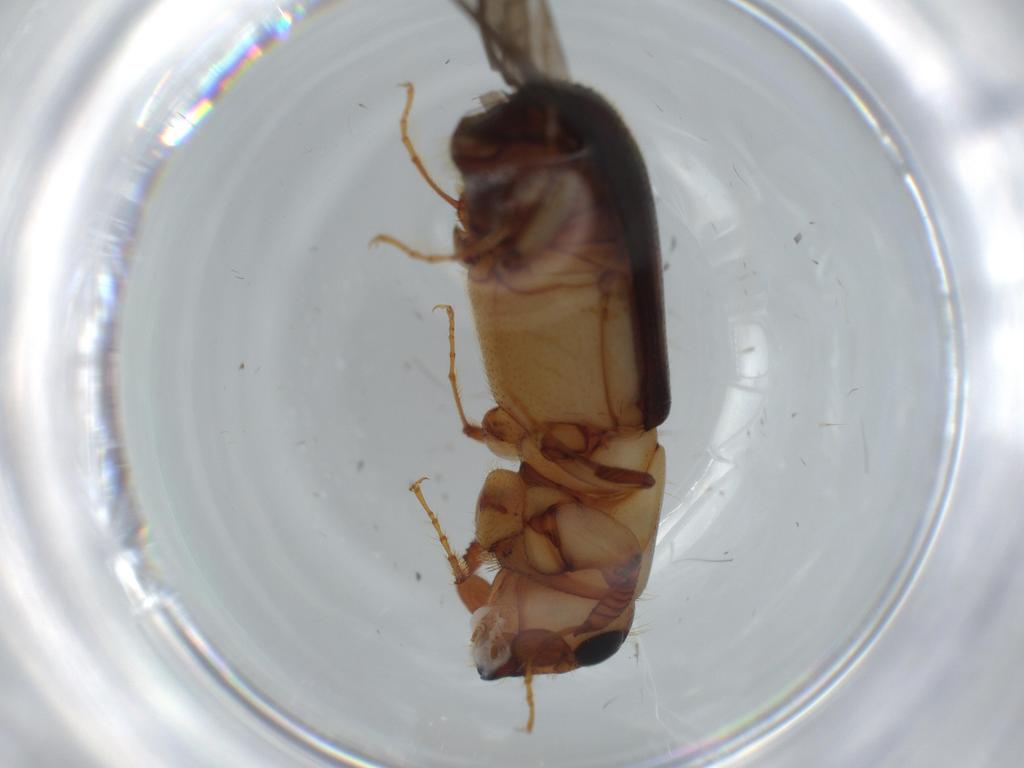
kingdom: Animalia
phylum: Arthropoda
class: Insecta
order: Coleoptera
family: Curculionidae
